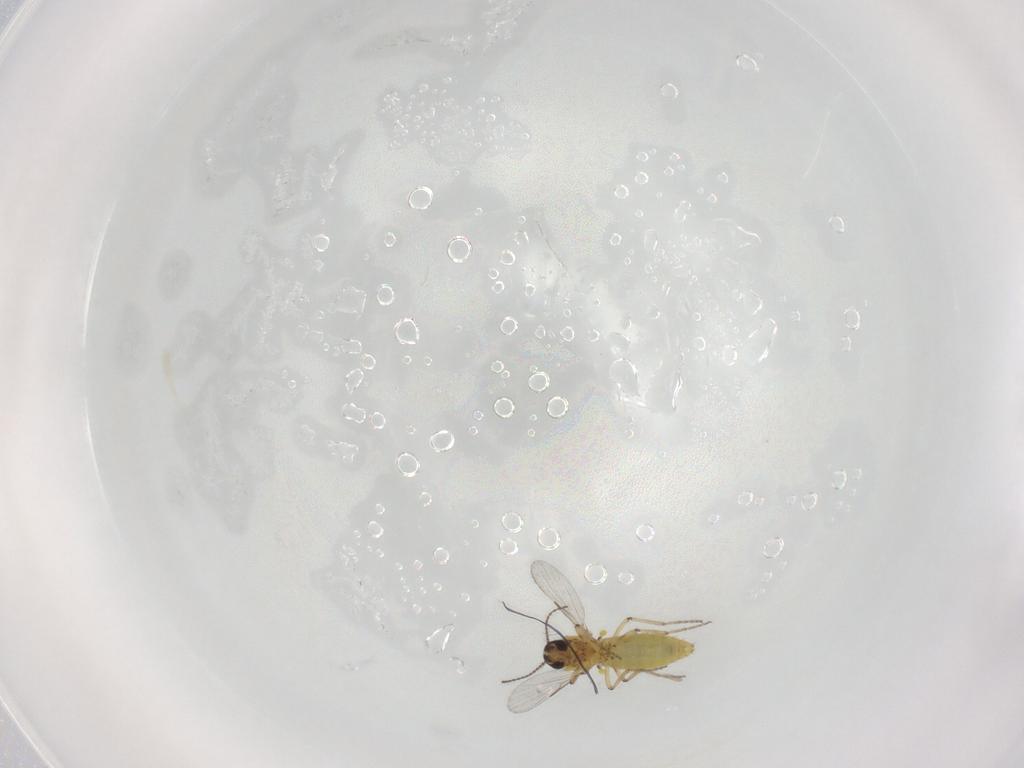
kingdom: Animalia
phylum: Arthropoda
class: Insecta
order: Diptera
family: Ceratopogonidae
